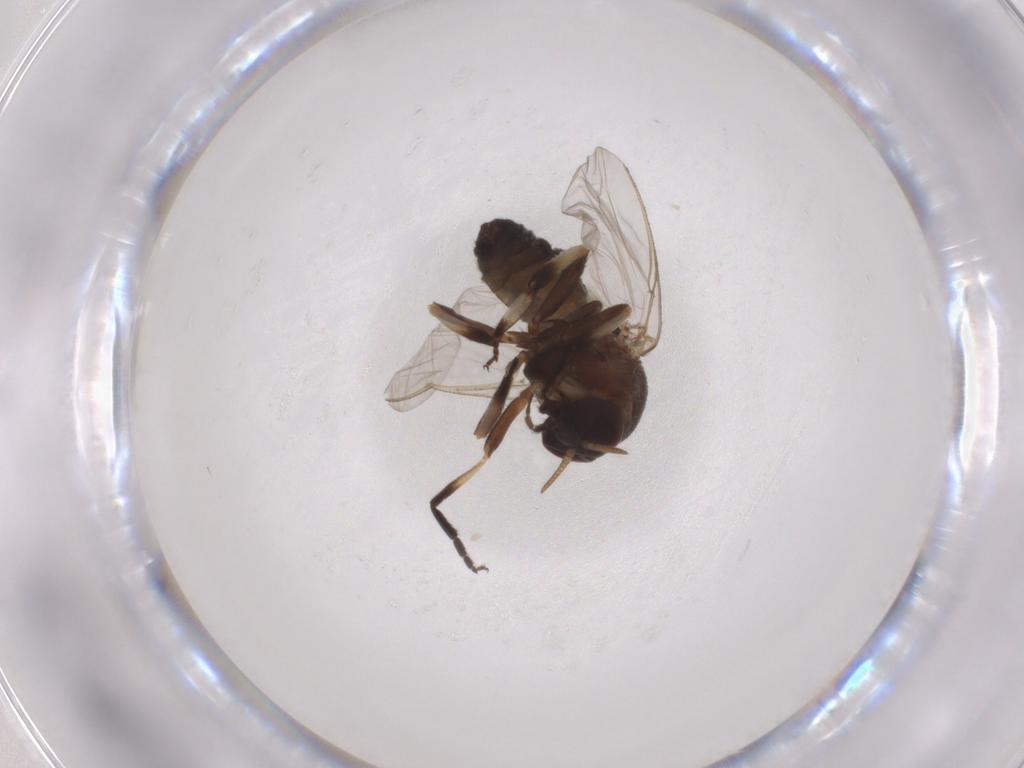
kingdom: Animalia
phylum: Arthropoda
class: Insecta
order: Diptera
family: Simuliidae
